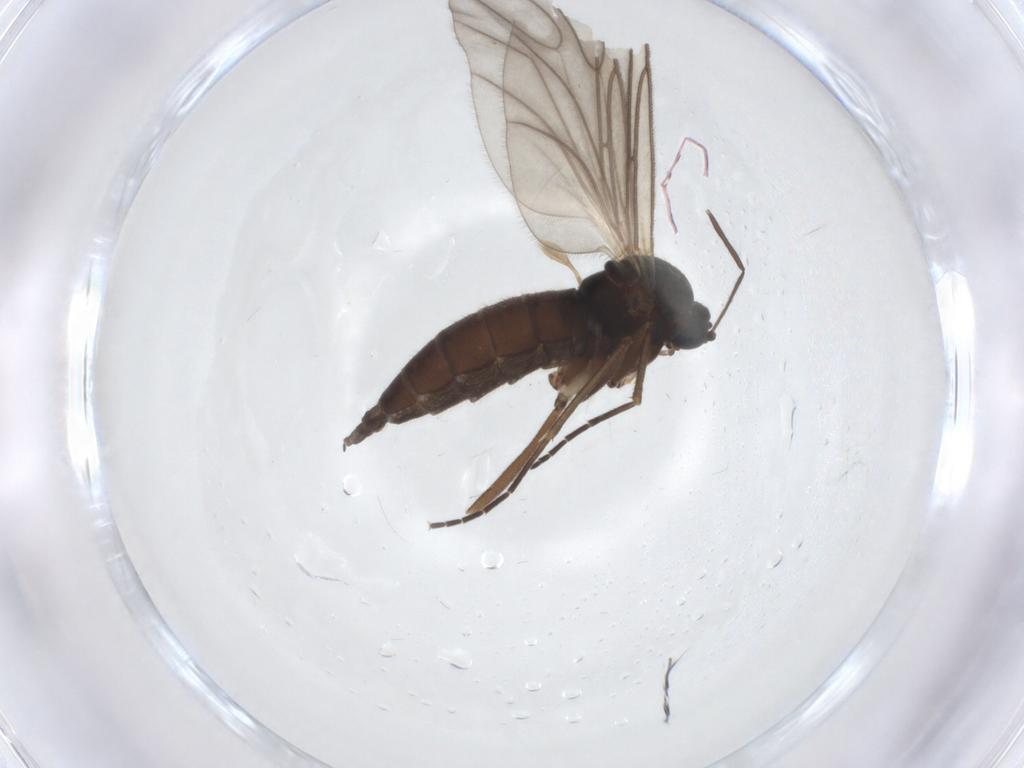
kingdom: Animalia
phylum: Arthropoda
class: Insecta
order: Diptera
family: Sciaridae
